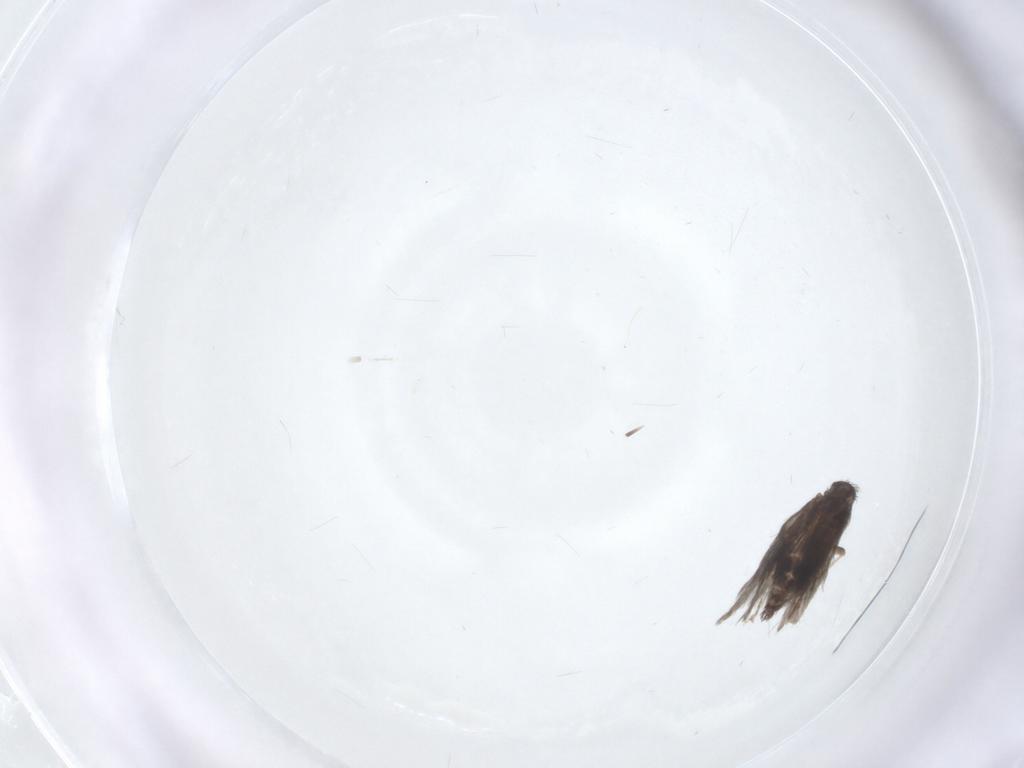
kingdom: Animalia
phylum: Arthropoda
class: Insecta
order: Trichoptera
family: Hydroptilidae
